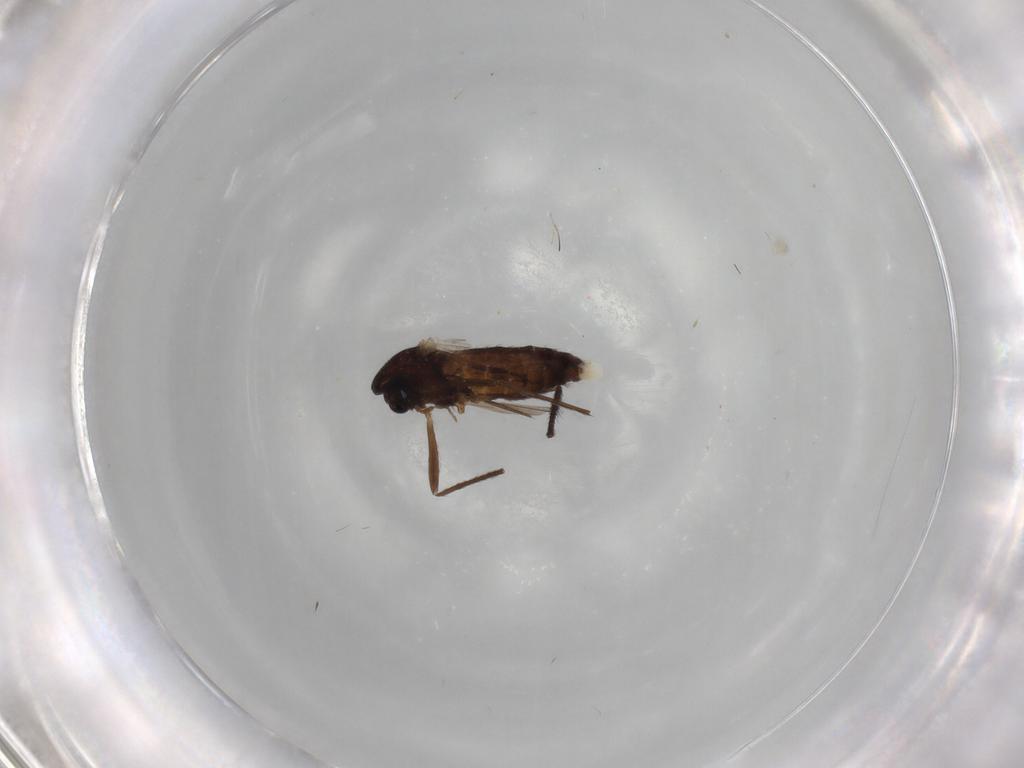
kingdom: Animalia
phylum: Arthropoda
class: Insecta
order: Diptera
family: Chironomidae
